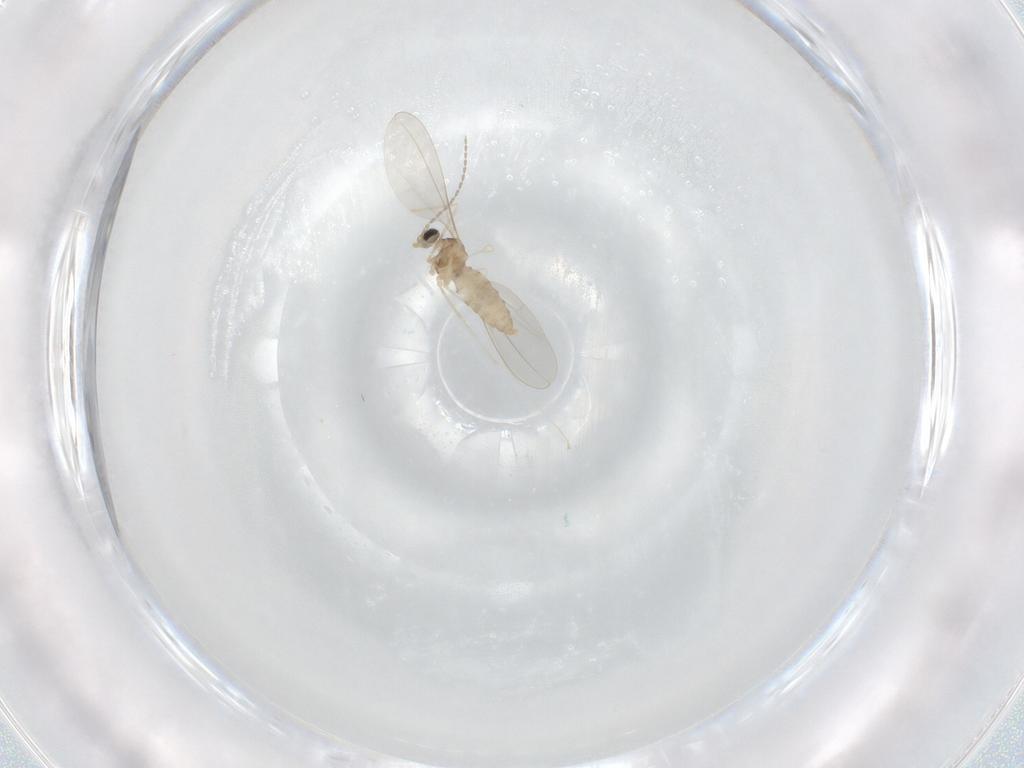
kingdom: Animalia
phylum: Arthropoda
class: Insecta
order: Diptera
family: Cecidomyiidae
